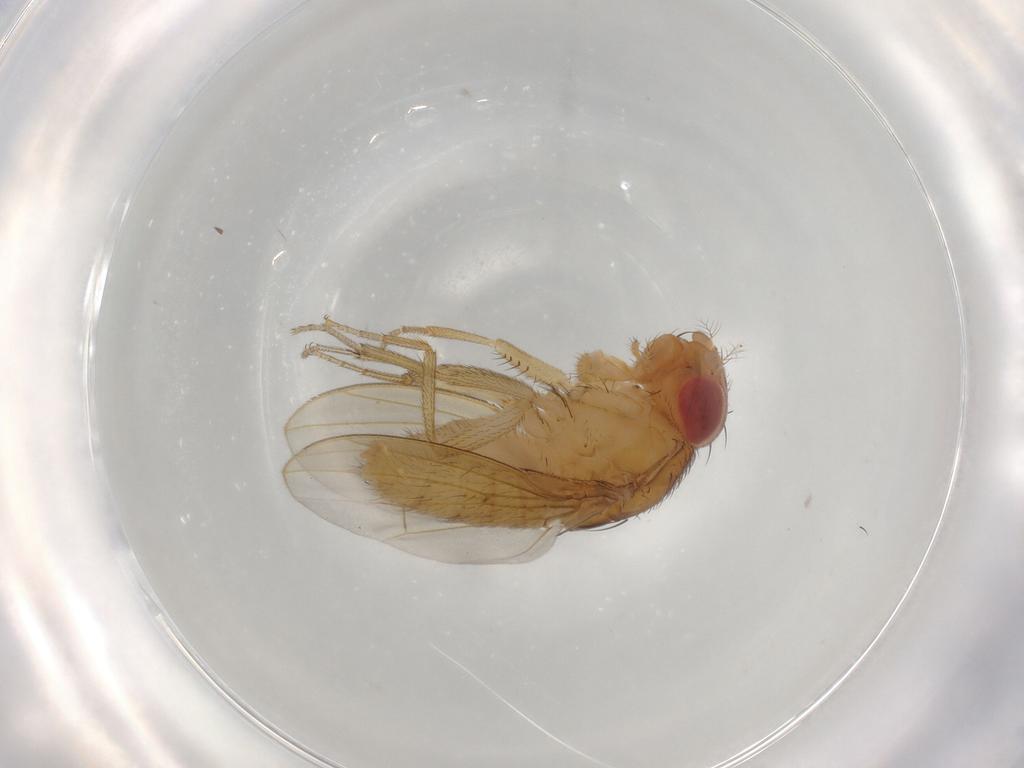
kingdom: Animalia
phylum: Arthropoda
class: Insecta
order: Diptera
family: Drosophilidae
